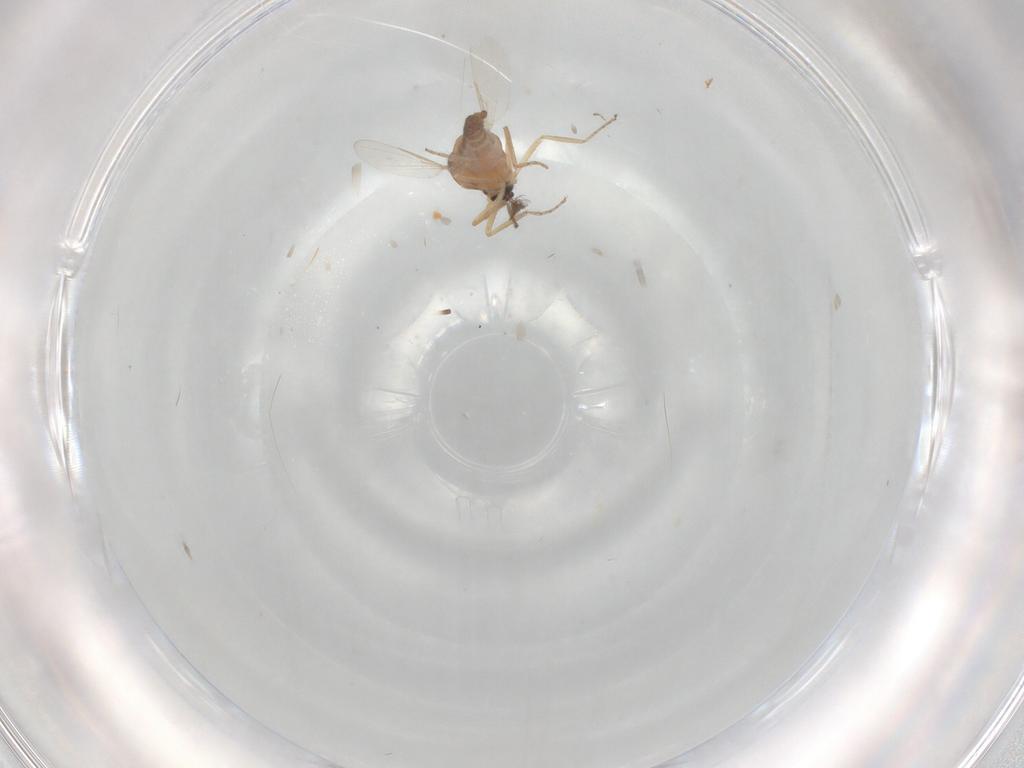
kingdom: Animalia
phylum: Arthropoda
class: Insecta
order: Diptera
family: Ceratopogonidae
